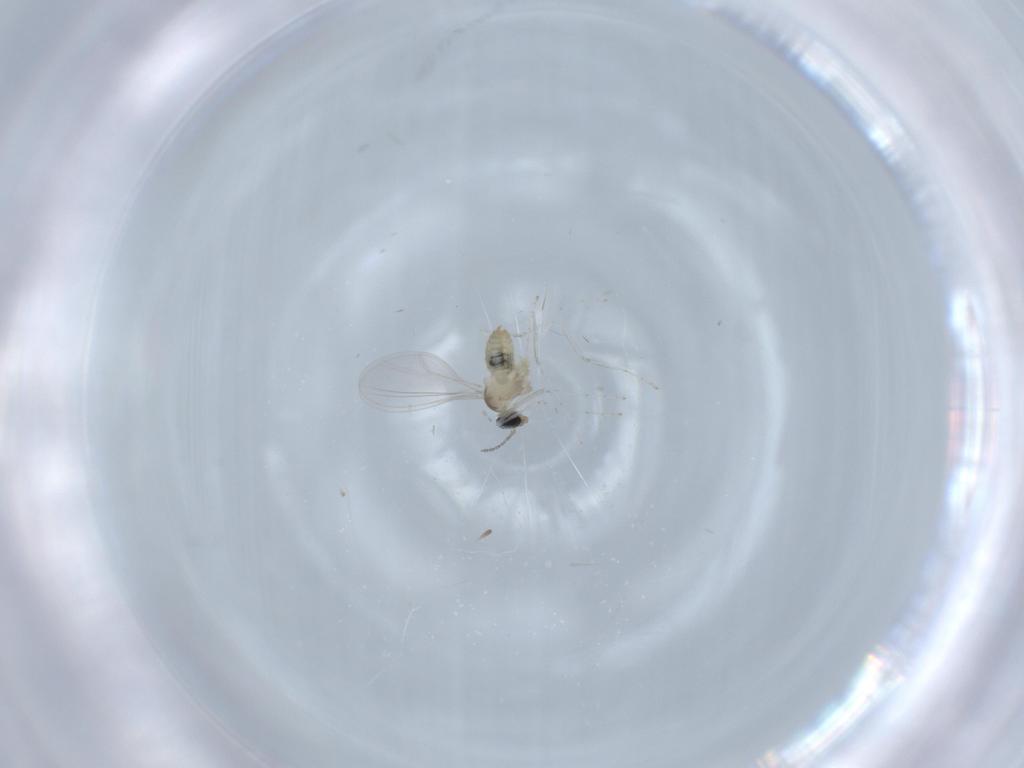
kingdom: Animalia
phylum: Arthropoda
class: Insecta
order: Diptera
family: Cecidomyiidae
